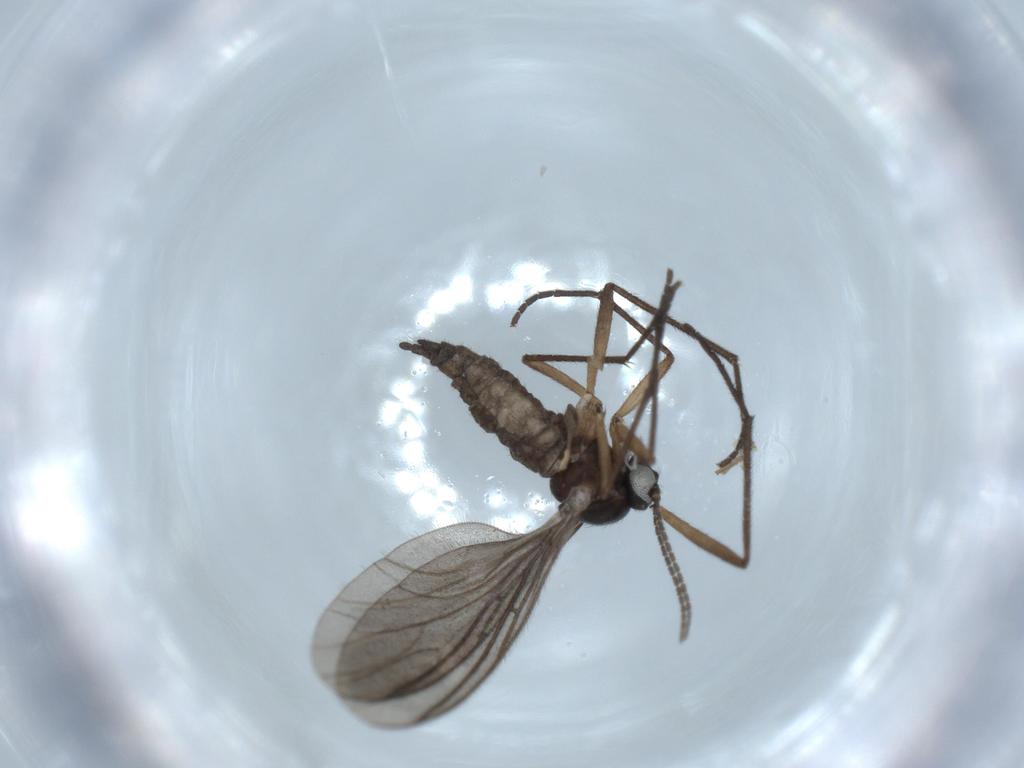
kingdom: Animalia
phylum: Arthropoda
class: Insecta
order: Diptera
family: Sciaridae
